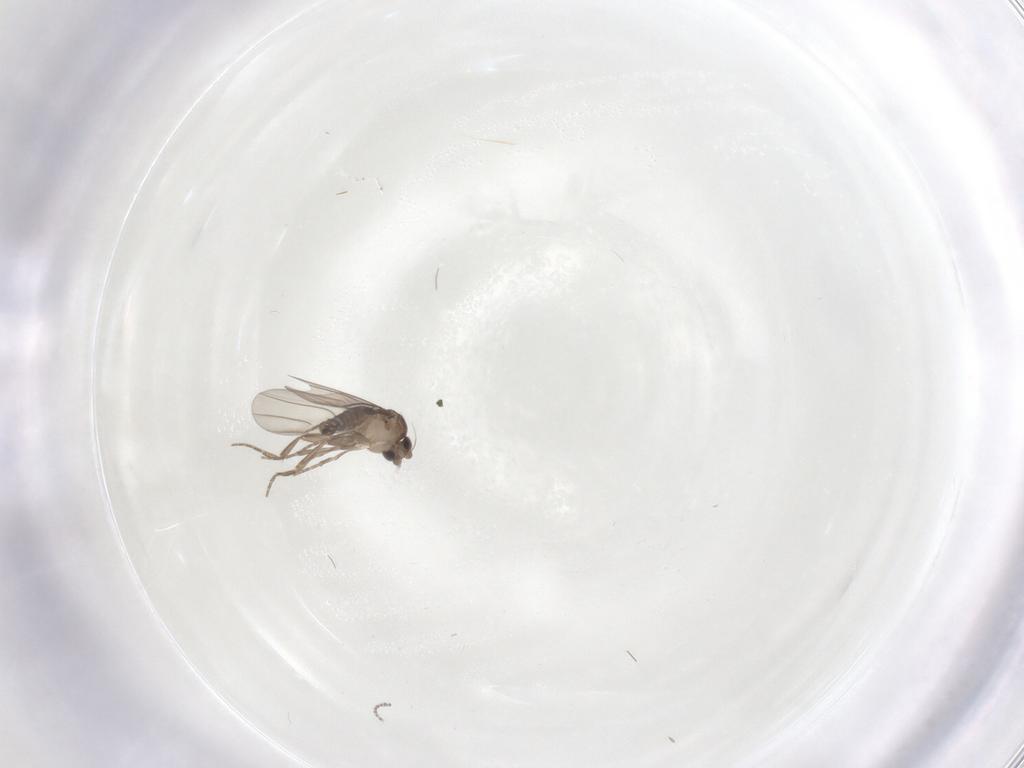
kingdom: Animalia
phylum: Arthropoda
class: Insecta
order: Diptera
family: Phoridae
